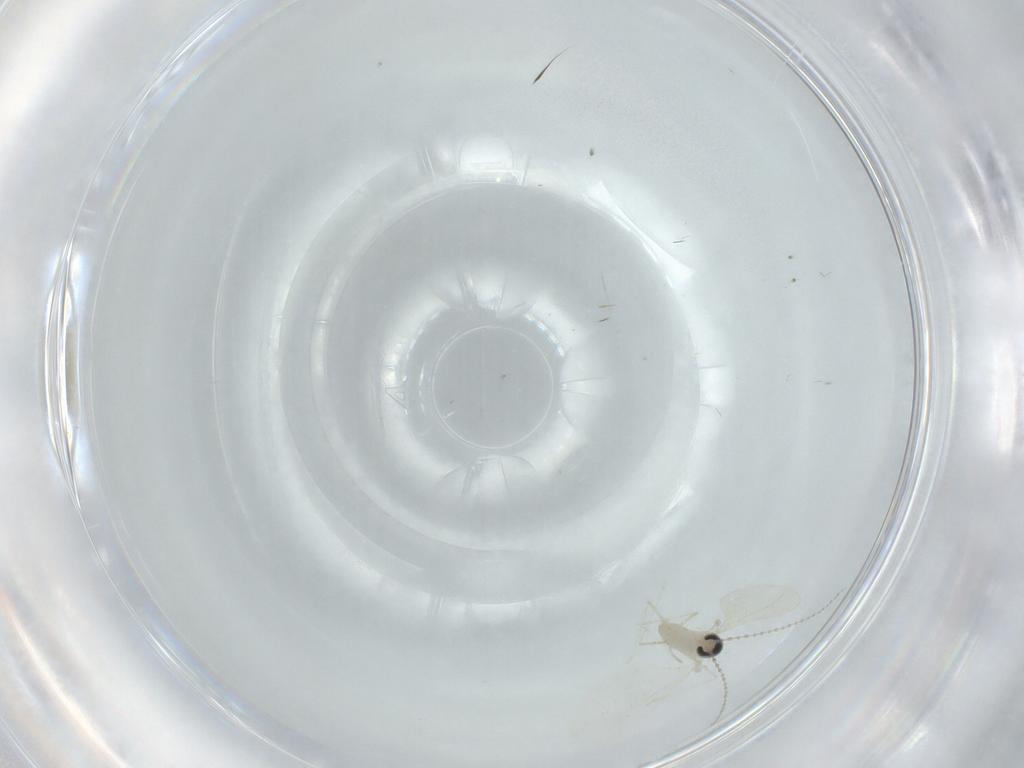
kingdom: Animalia
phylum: Arthropoda
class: Insecta
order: Diptera
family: Cecidomyiidae
